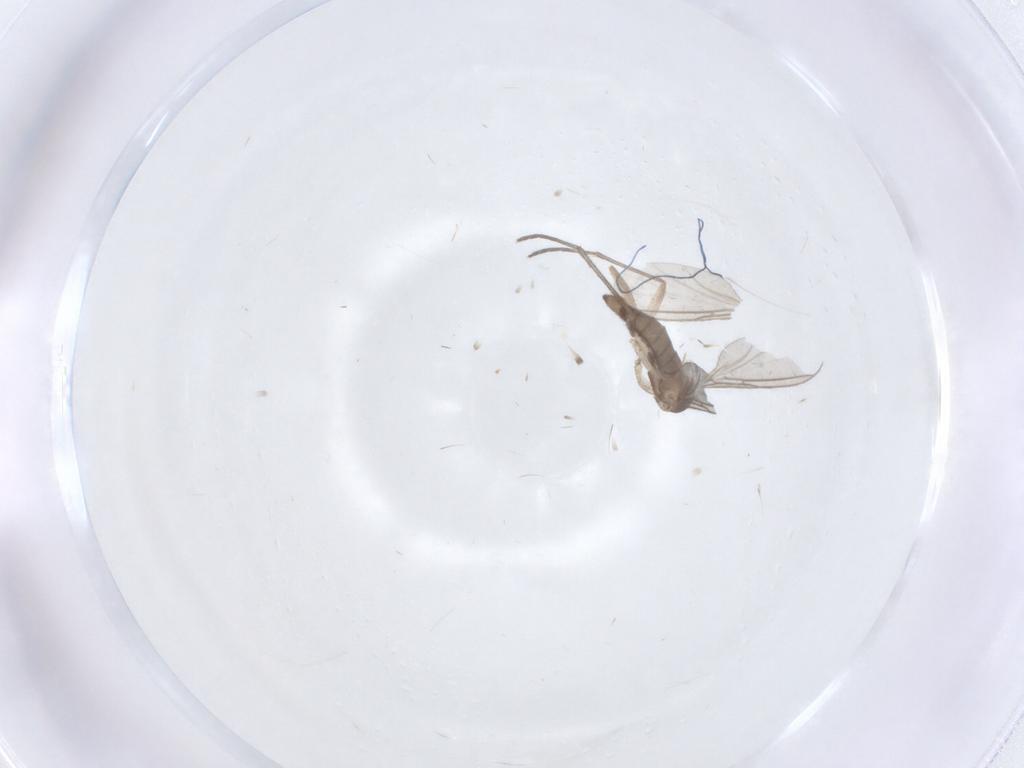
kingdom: Animalia
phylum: Arthropoda
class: Insecta
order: Diptera
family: Sciaridae
